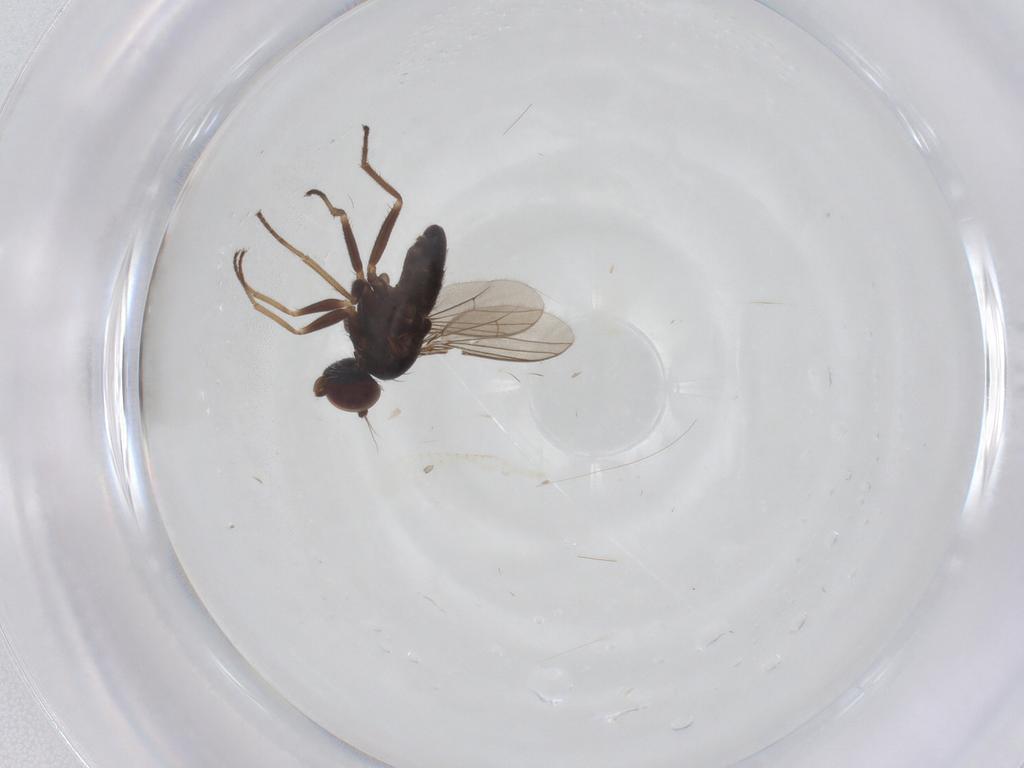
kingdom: Animalia
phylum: Arthropoda
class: Insecta
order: Diptera
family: Dolichopodidae
